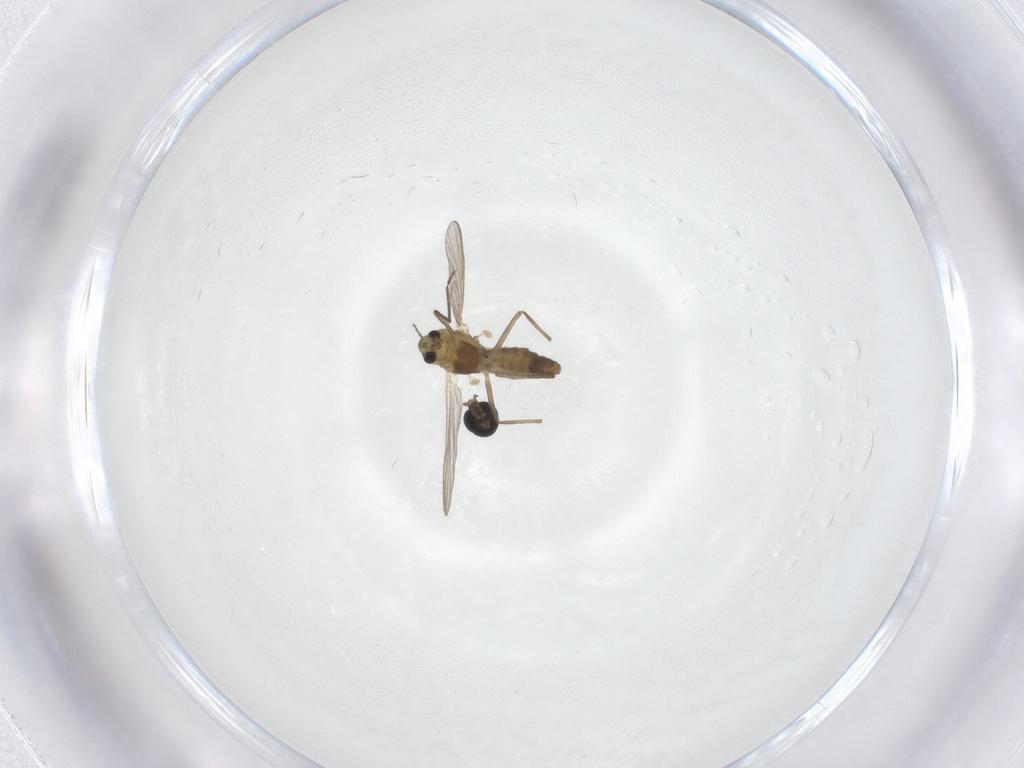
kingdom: Animalia
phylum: Arthropoda
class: Insecta
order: Diptera
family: Cecidomyiidae
